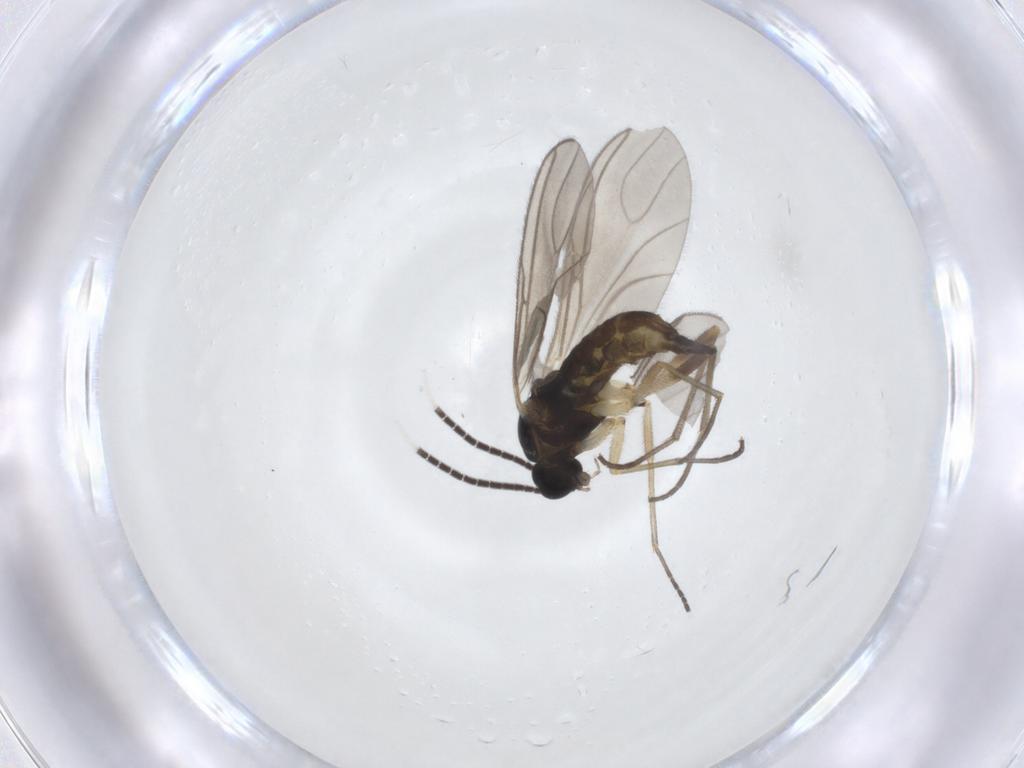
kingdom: Animalia
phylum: Arthropoda
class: Insecta
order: Diptera
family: Sciaridae
